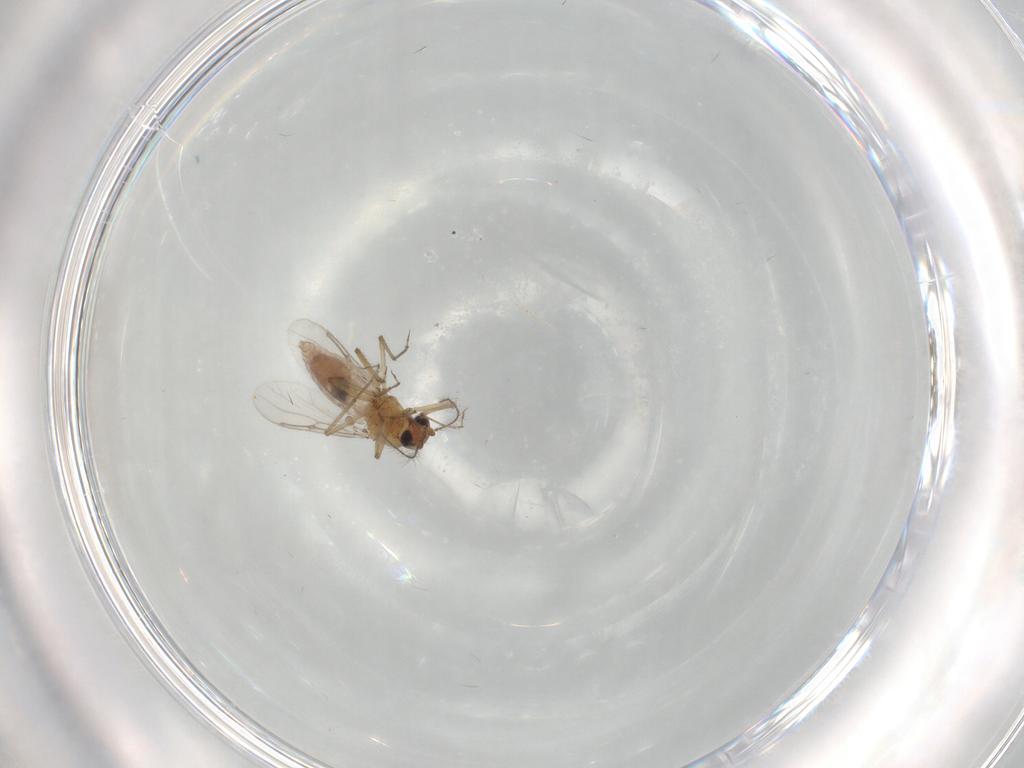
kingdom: Animalia
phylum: Arthropoda
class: Insecta
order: Diptera
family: Ceratopogonidae
